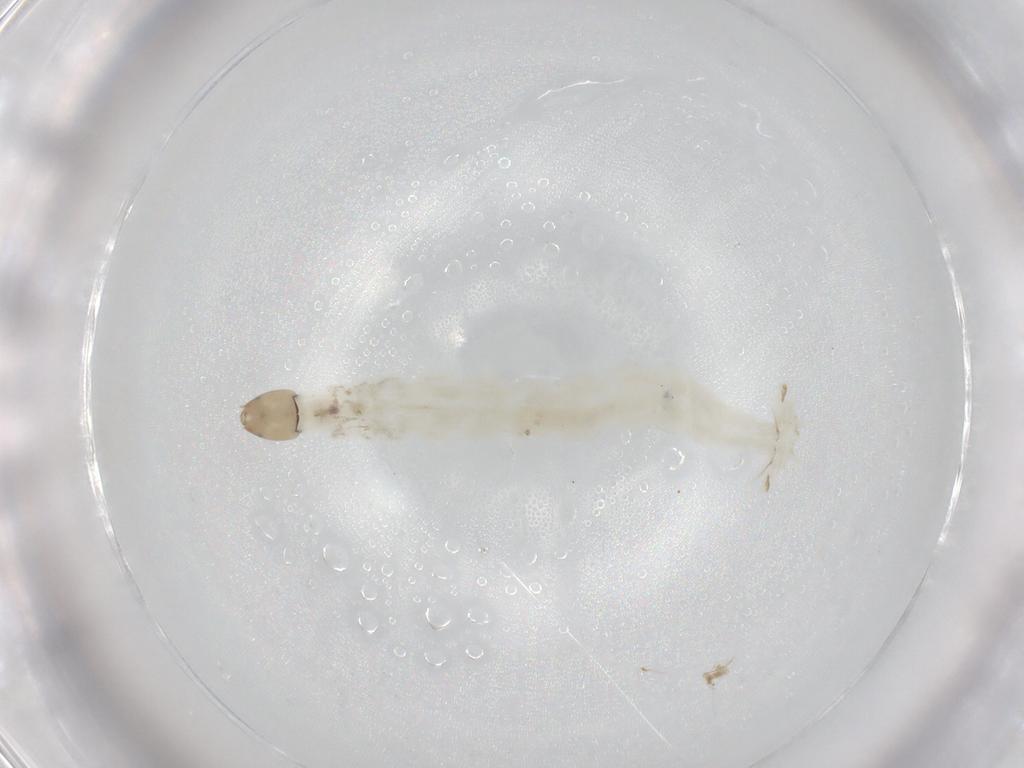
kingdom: Animalia
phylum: Arthropoda
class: Insecta
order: Diptera
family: Chironomidae
